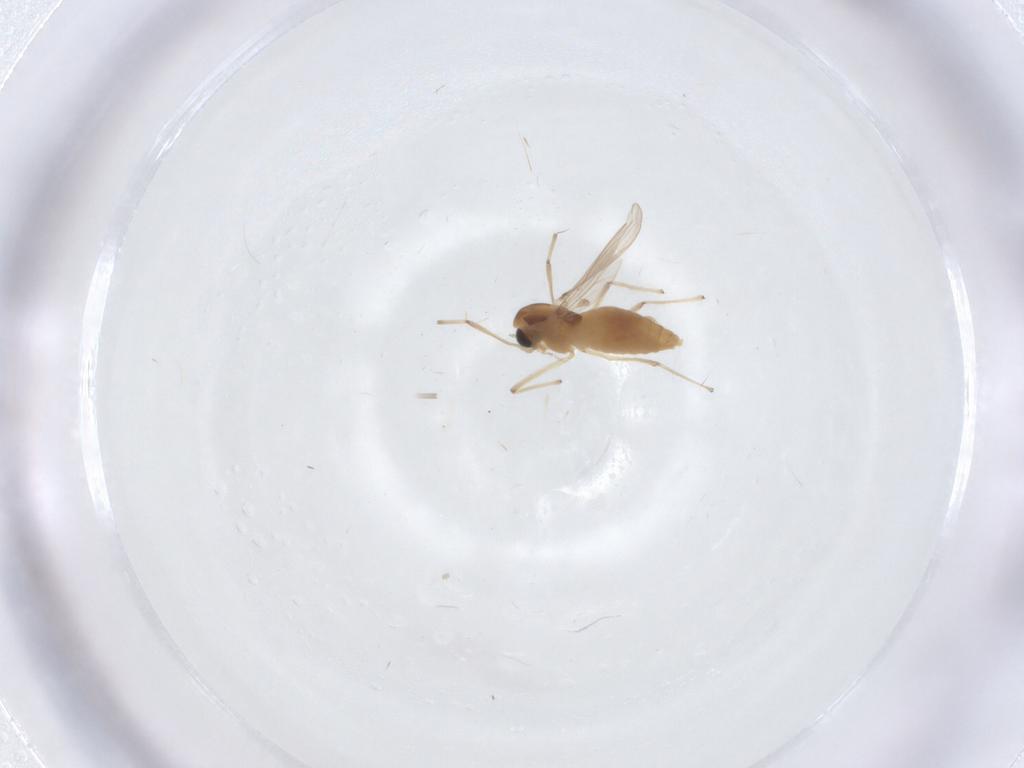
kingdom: Animalia
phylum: Arthropoda
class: Insecta
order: Diptera
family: Chironomidae
